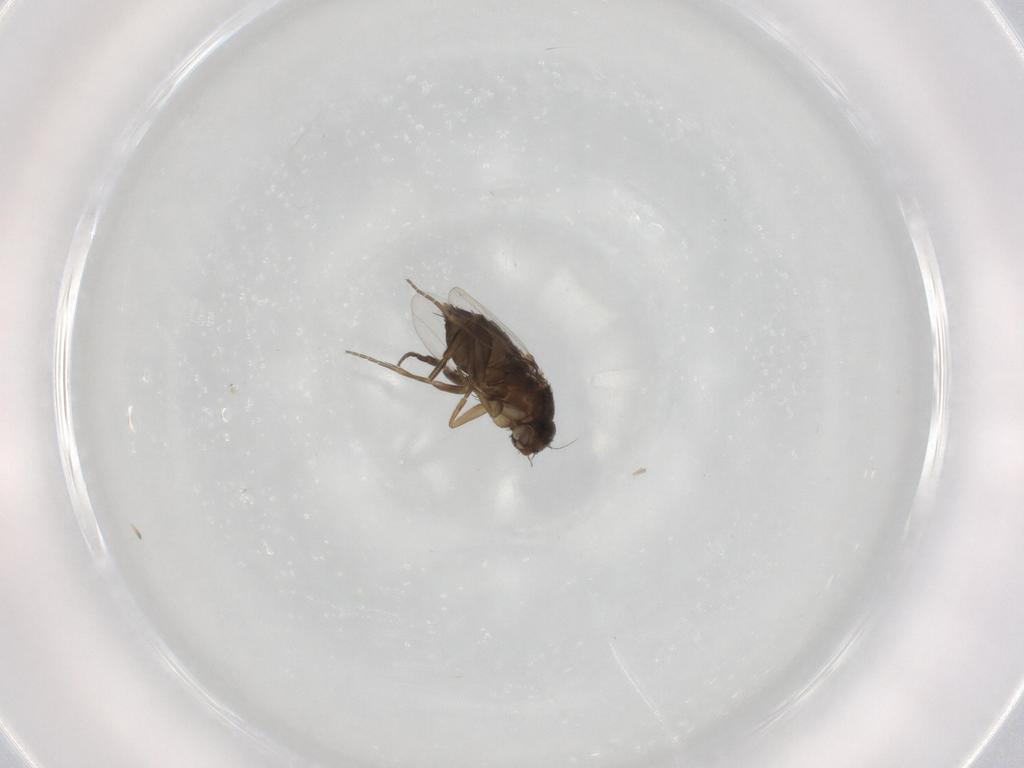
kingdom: Animalia
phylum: Arthropoda
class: Insecta
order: Diptera
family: Phoridae
